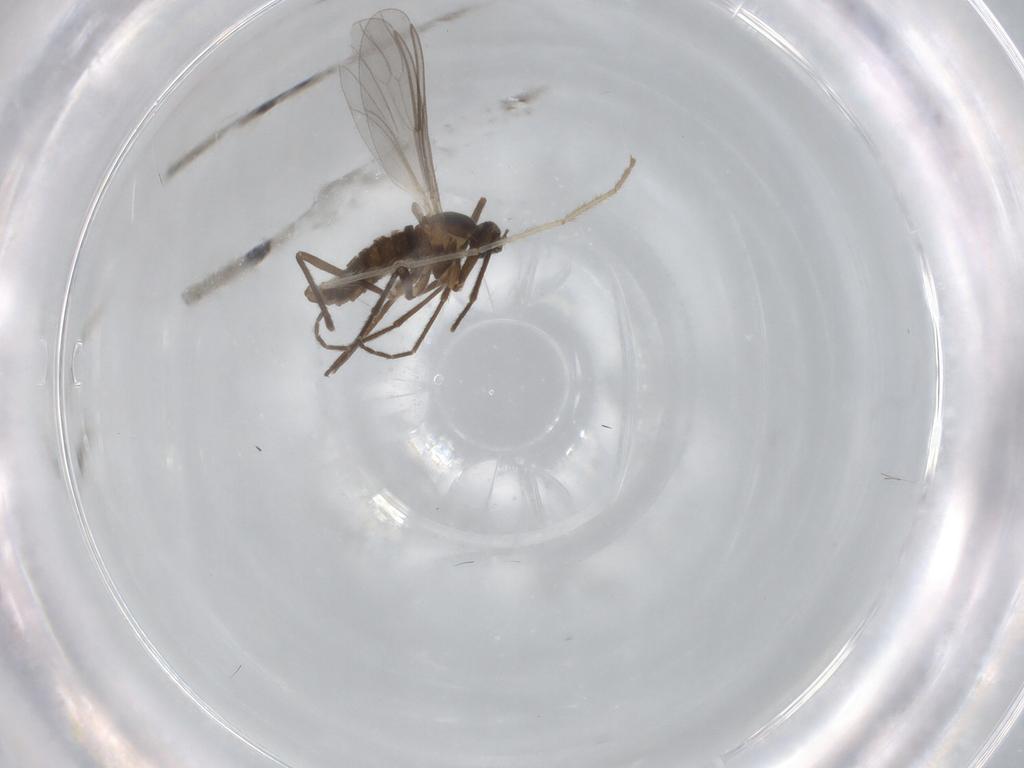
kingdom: Animalia
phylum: Arthropoda
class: Insecta
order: Diptera
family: Cecidomyiidae
